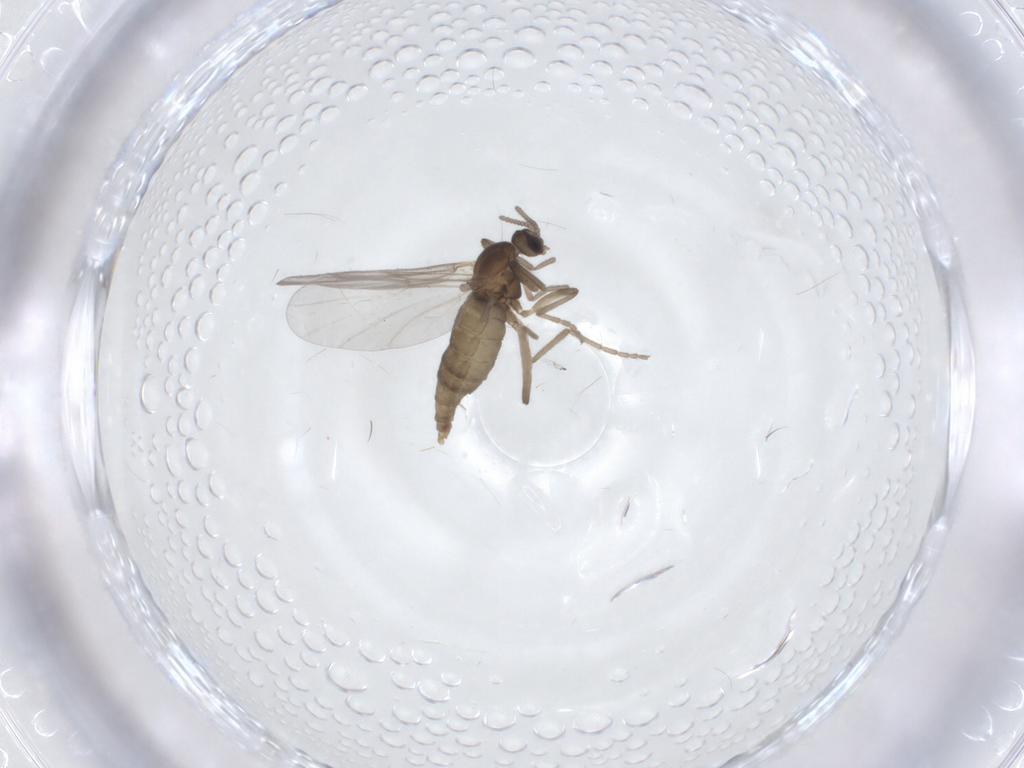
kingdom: Animalia
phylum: Arthropoda
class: Insecta
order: Diptera
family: Cecidomyiidae
